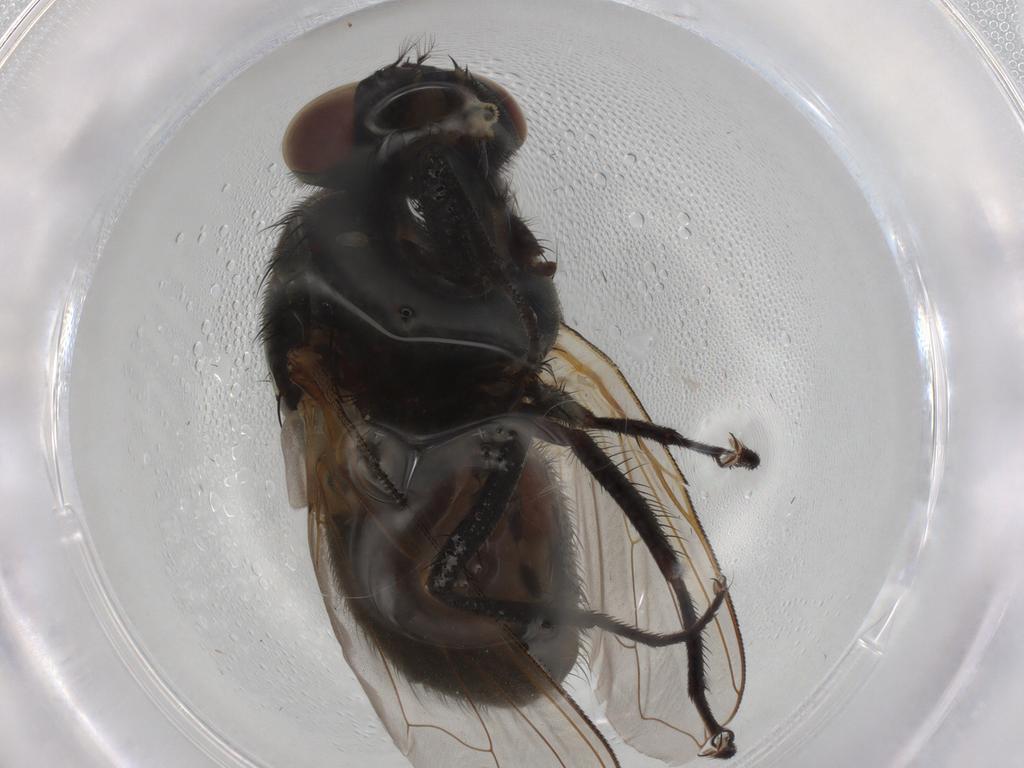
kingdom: Animalia
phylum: Arthropoda
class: Insecta
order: Diptera
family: Muscidae
